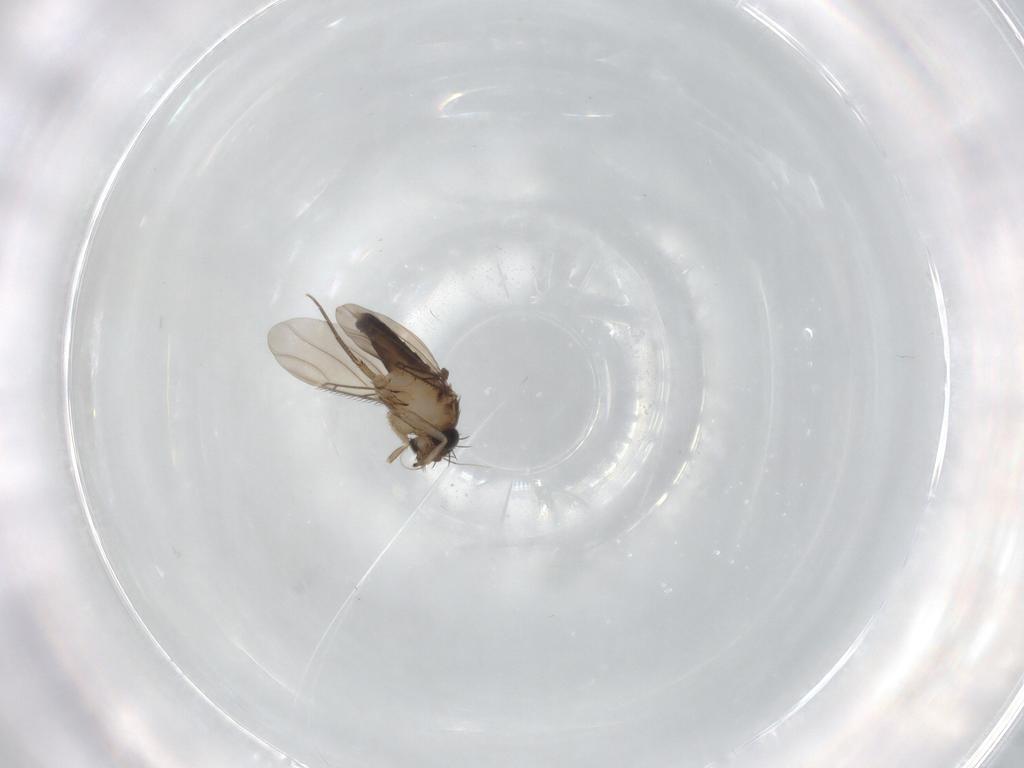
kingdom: Animalia
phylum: Arthropoda
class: Insecta
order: Diptera
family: Phoridae
